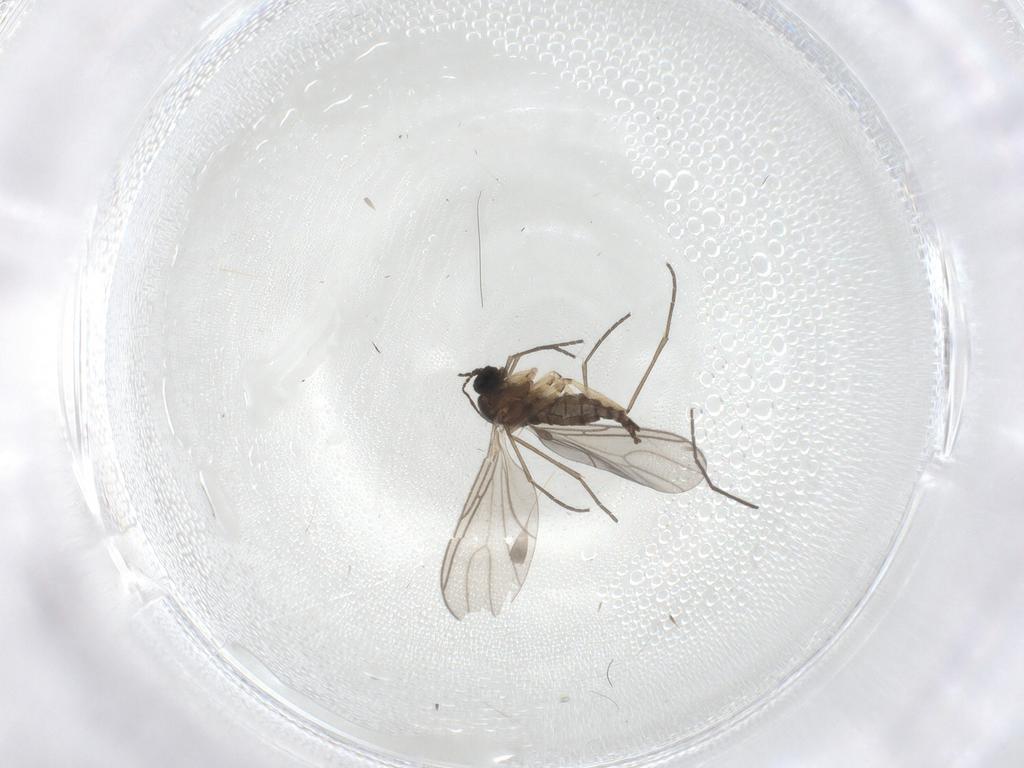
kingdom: Animalia
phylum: Arthropoda
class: Insecta
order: Diptera
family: Sciaridae
